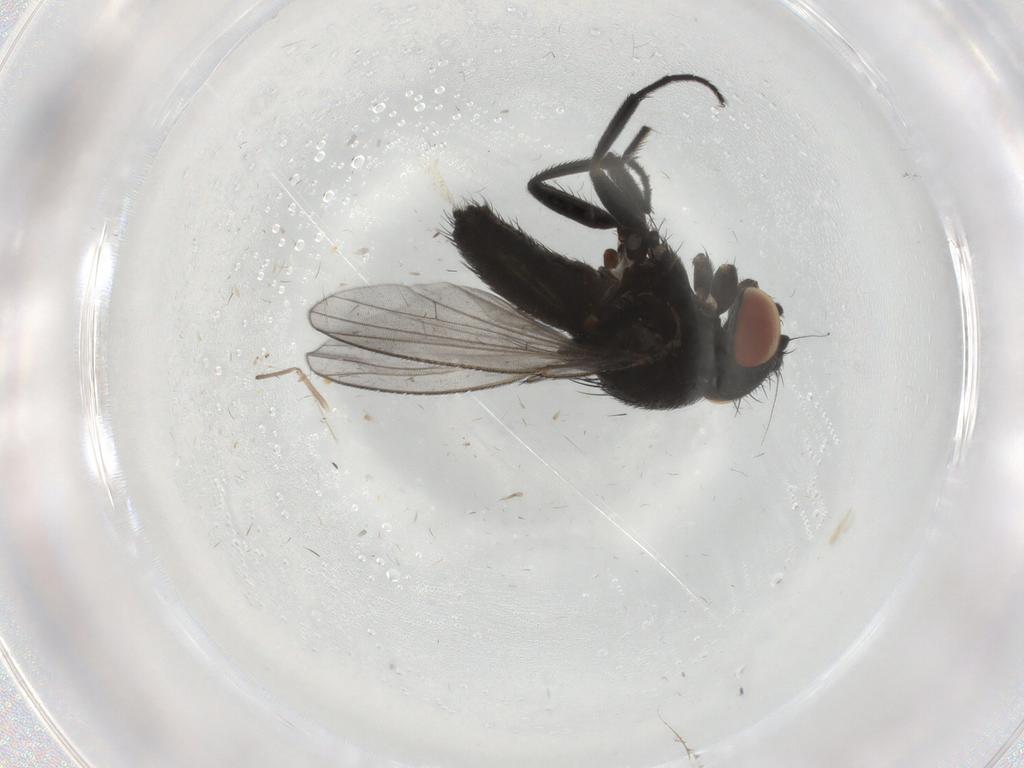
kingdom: Animalia
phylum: Arthropoda
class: Insecta
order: Diptera
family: Milichiidae
